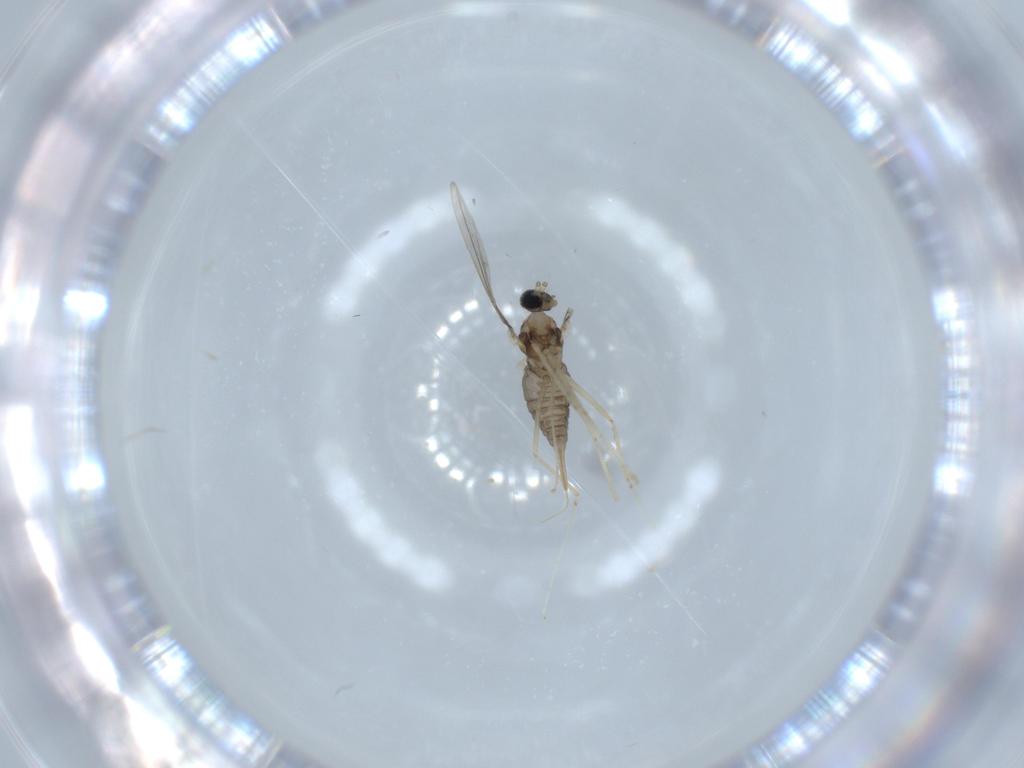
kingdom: Animalia
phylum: Arthropoda
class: Insecta
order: Diptera
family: Cecidomyiidae
